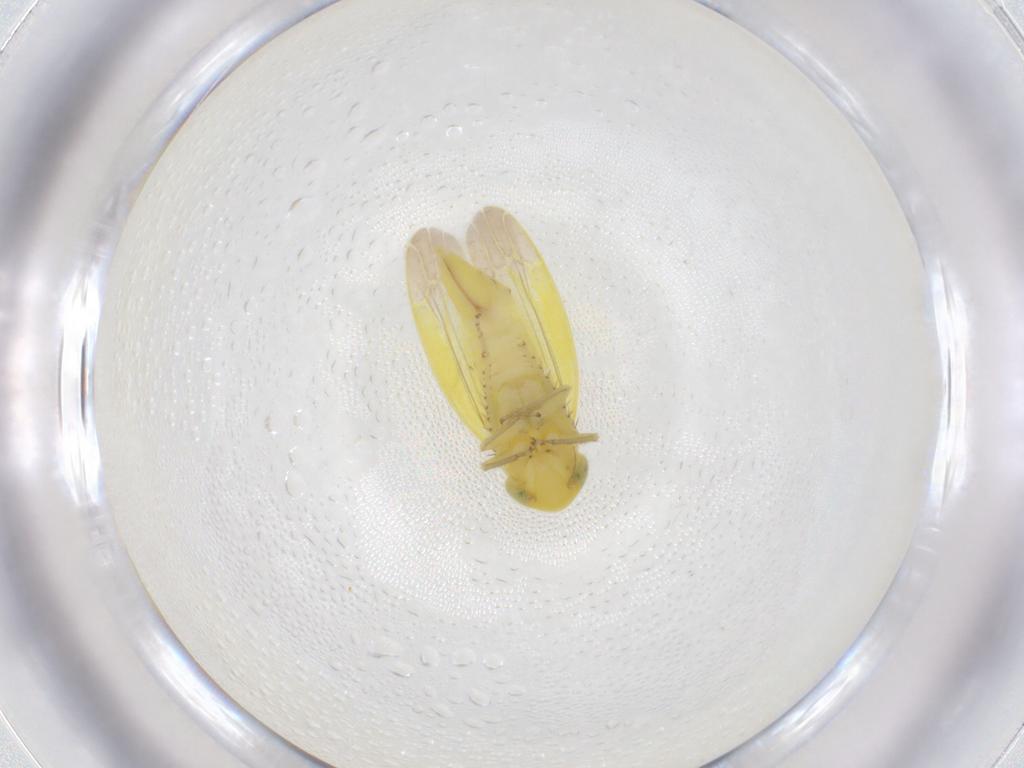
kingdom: Animalia
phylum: Arthropoda
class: Insecta
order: Hemiptera
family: Cicadellidae
